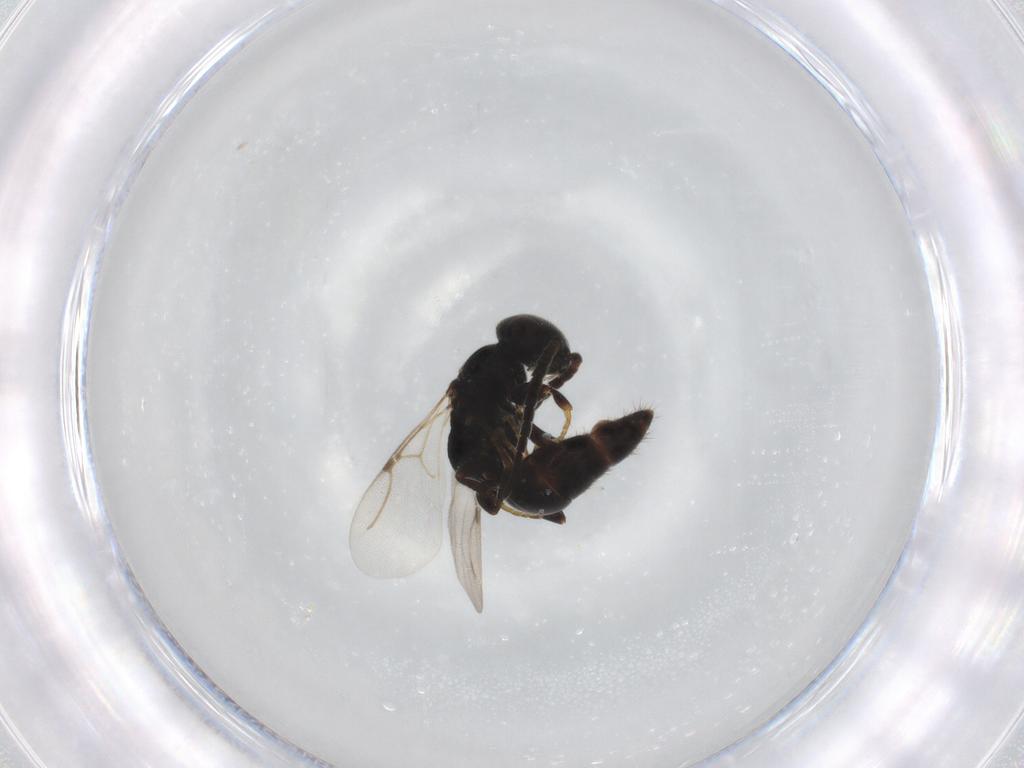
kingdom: Animalia
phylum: Arthropoda
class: Insecta
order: Hymenoptera
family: Bethylidae
